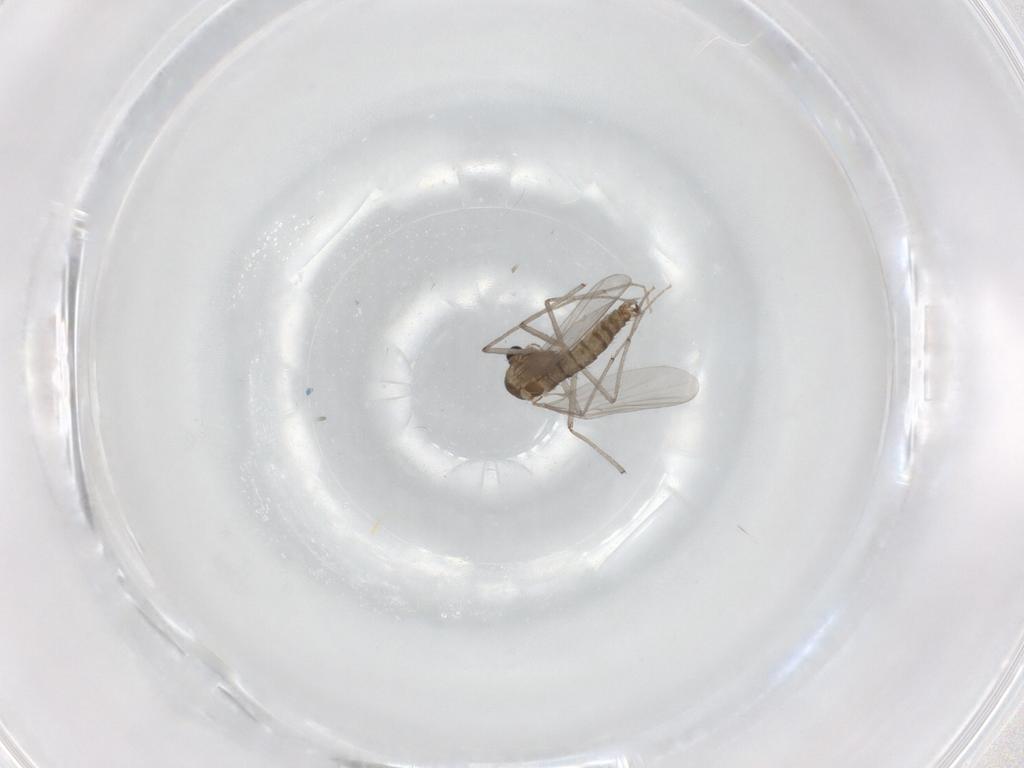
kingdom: Animalia
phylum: Arthropoda
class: Insecta
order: Diptera
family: Chironomidae
